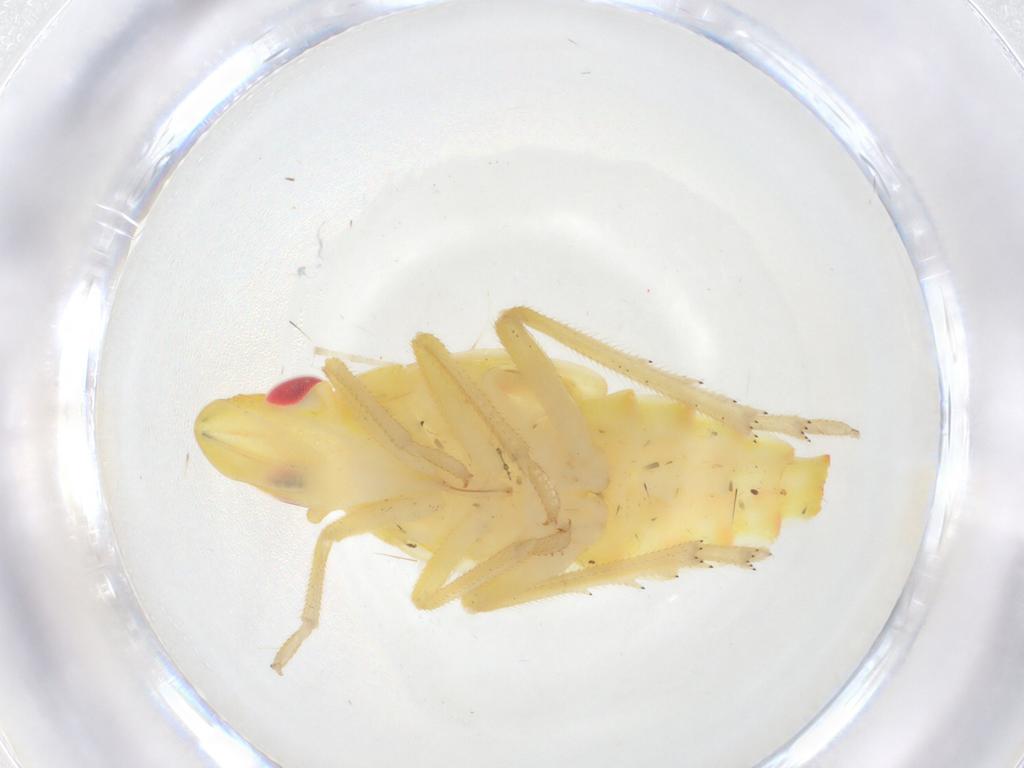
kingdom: Animalia
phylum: Arthropoda
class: Insecta
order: Hemiptera
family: Tropiduchidae
